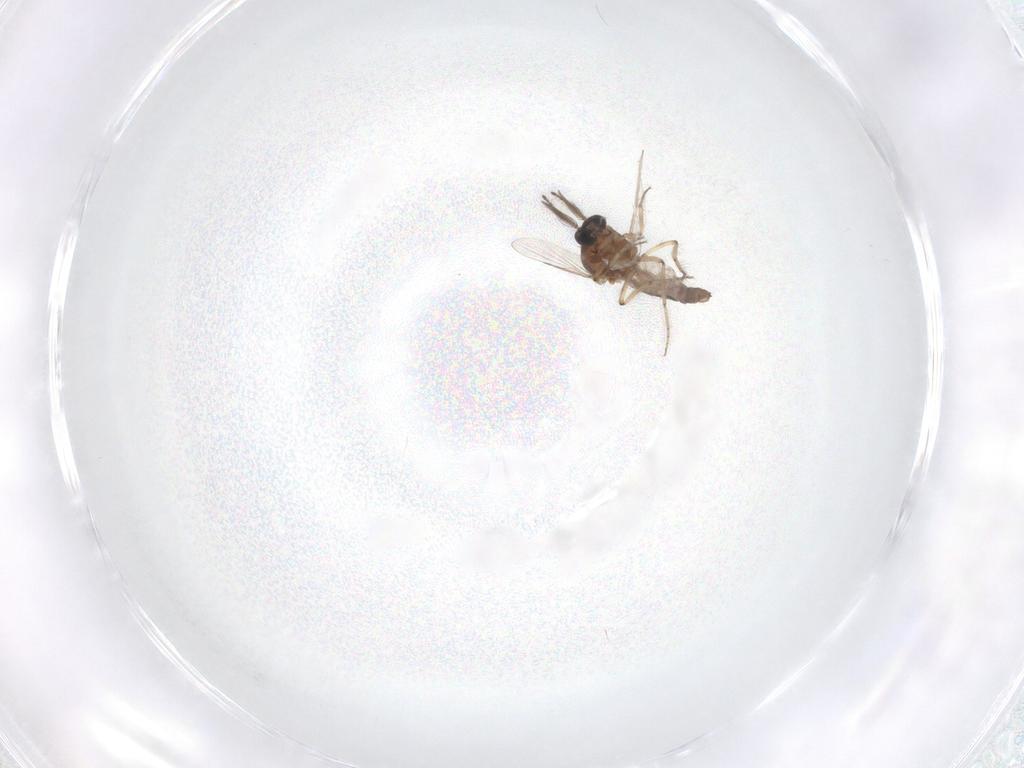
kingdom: Animalia
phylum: Arthropoda
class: Insecta
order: Diptera
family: Ceratopogonidae
